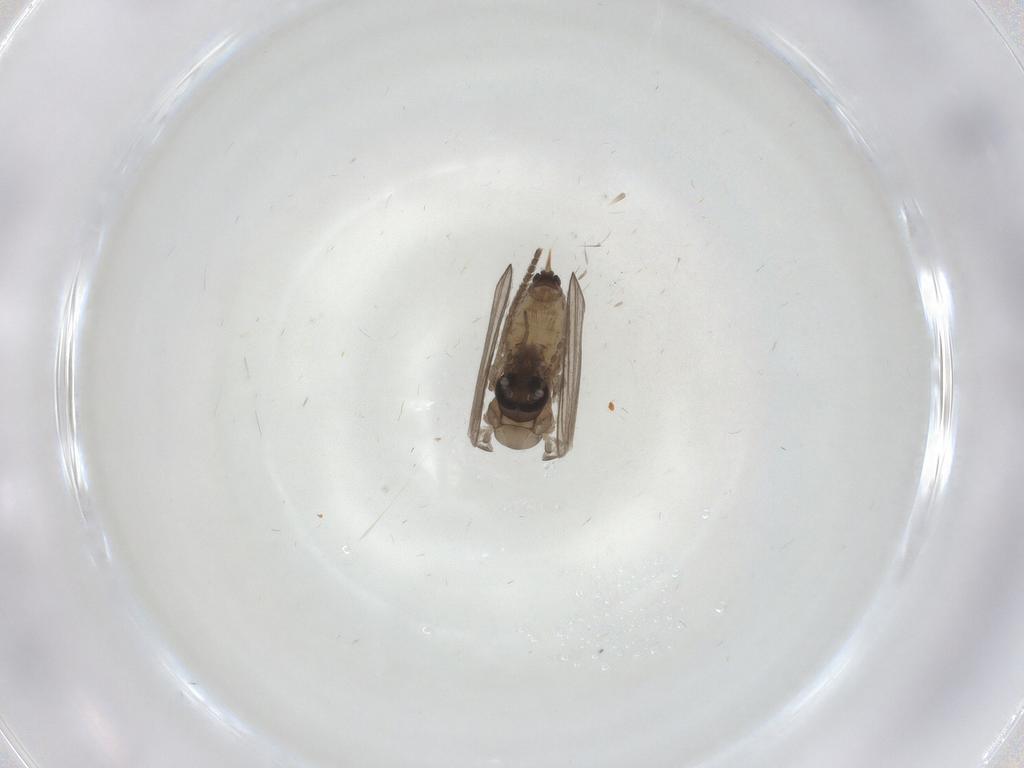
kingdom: Animalia
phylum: Arthropoda
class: Insecta
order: Diptera
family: Psychodidae
